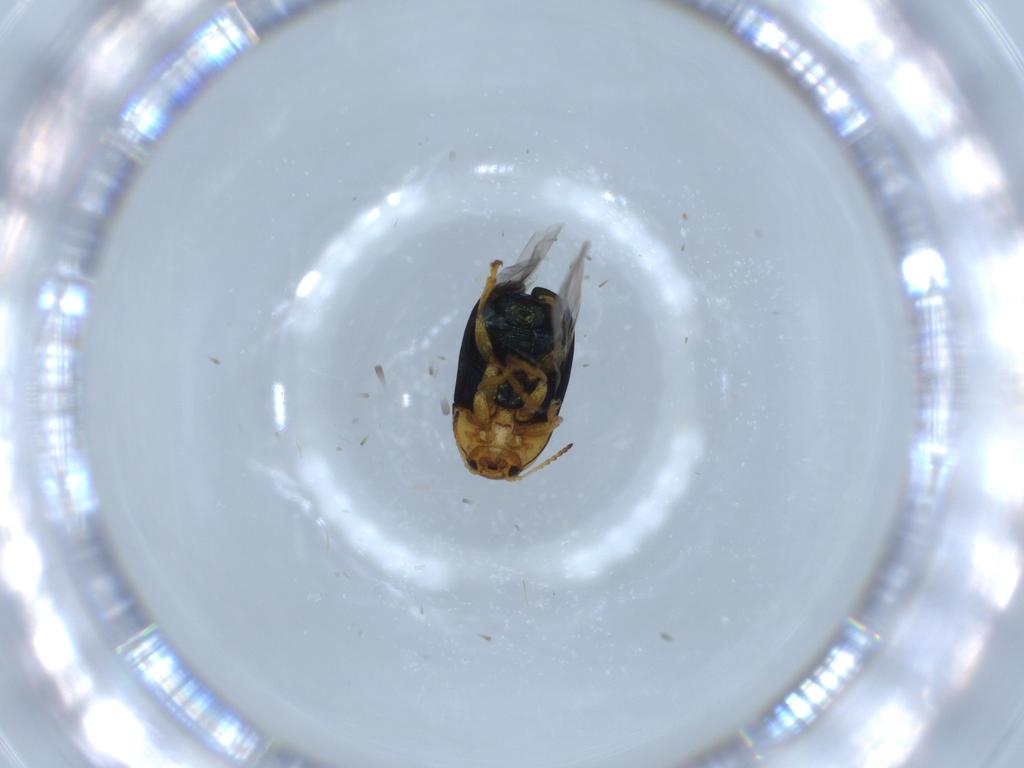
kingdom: Animalia
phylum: Arthropoda
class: Insecta
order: Coleoptera
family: Chrysomelidae
